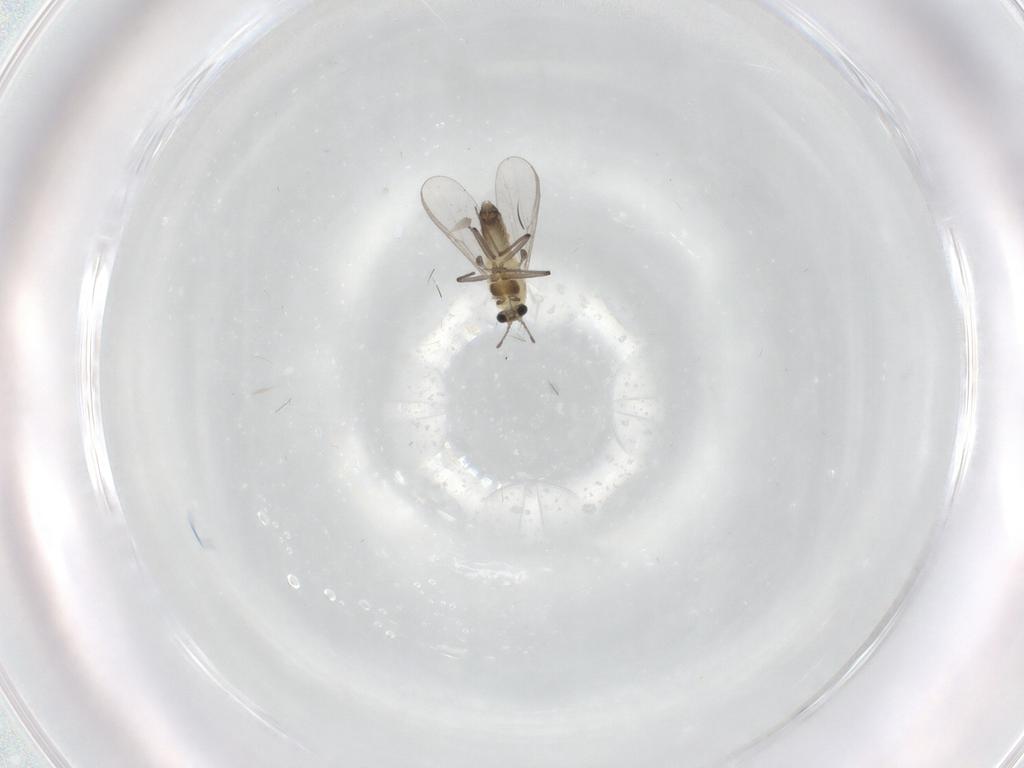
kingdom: Animalia
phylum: Arthropoda
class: Insecta
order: Diptera
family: Chironomidae
